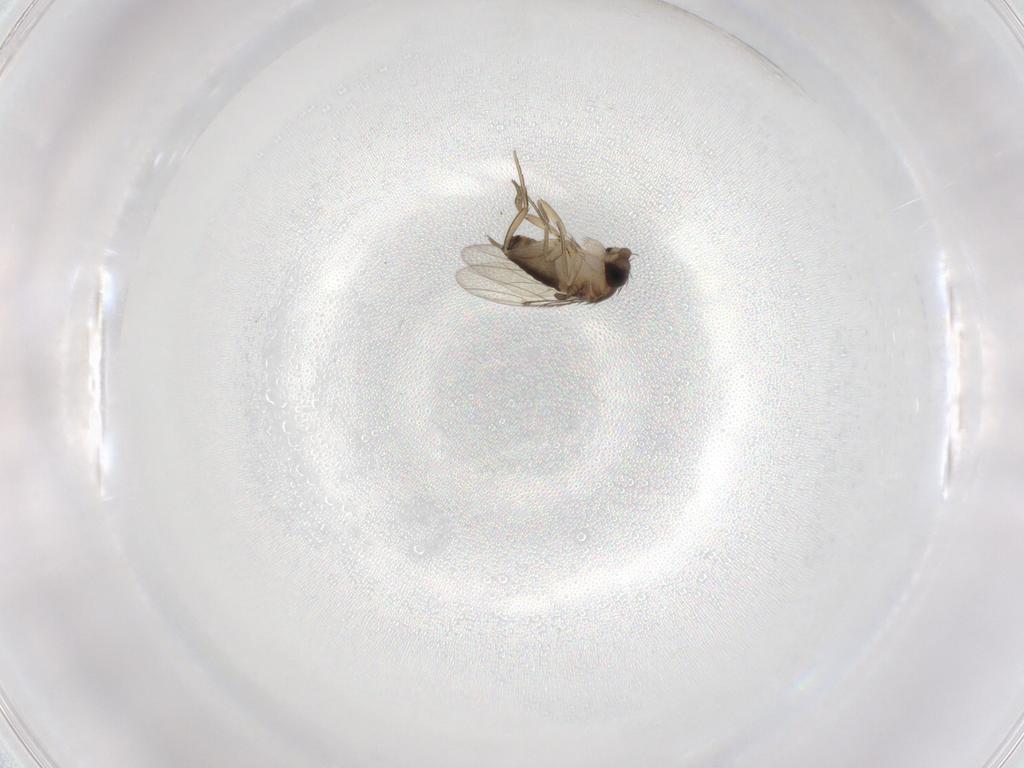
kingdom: Animalia
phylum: Arthropoda
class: Insecta
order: Diptera
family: Phoridae
